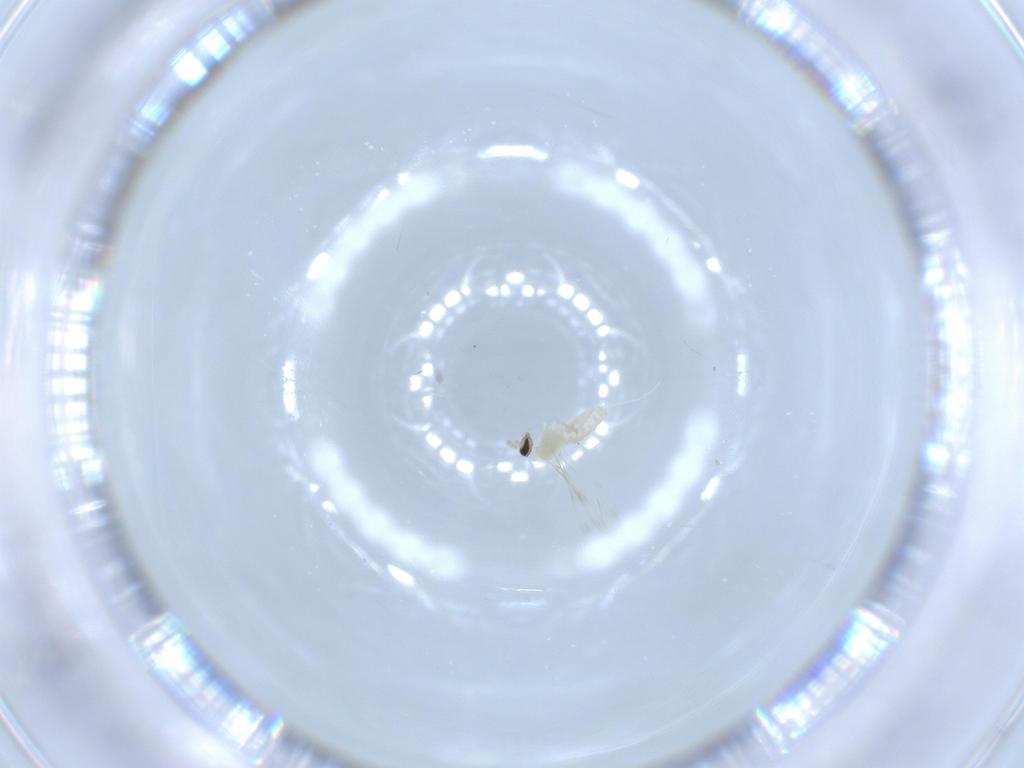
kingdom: Animalia
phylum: Arthropoda
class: Insecta
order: Diptera
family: Cecidomyiidae
